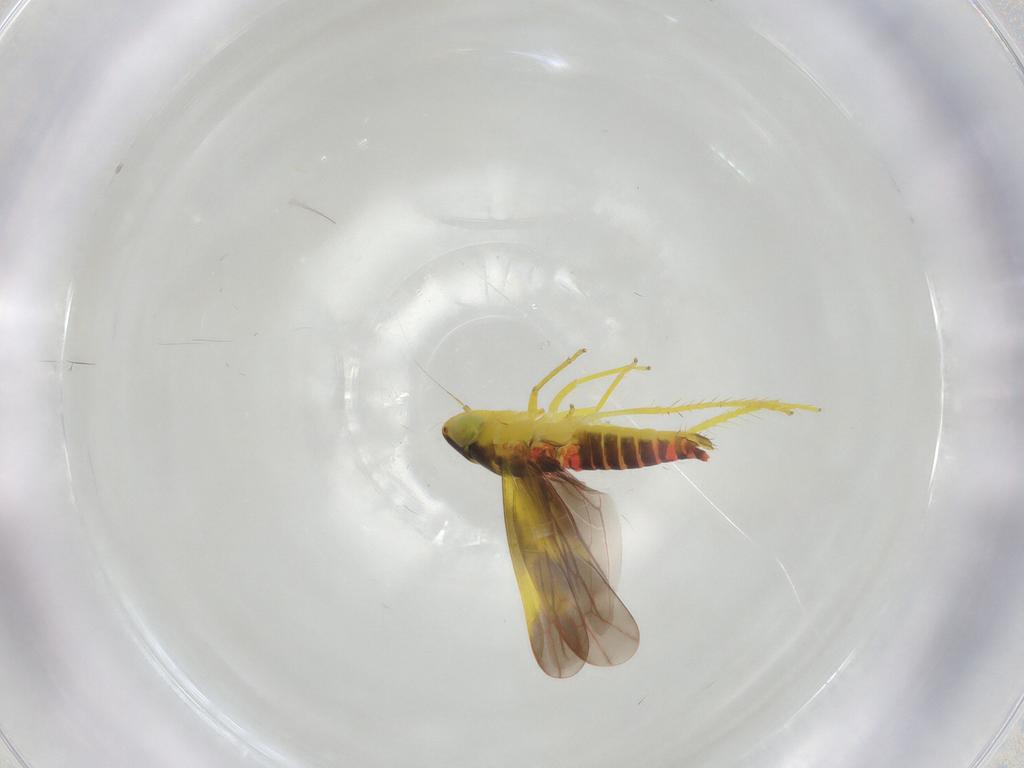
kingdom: Animalia
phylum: Arthropoda
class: Insecta
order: Hemiptera
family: Cicadellidae
